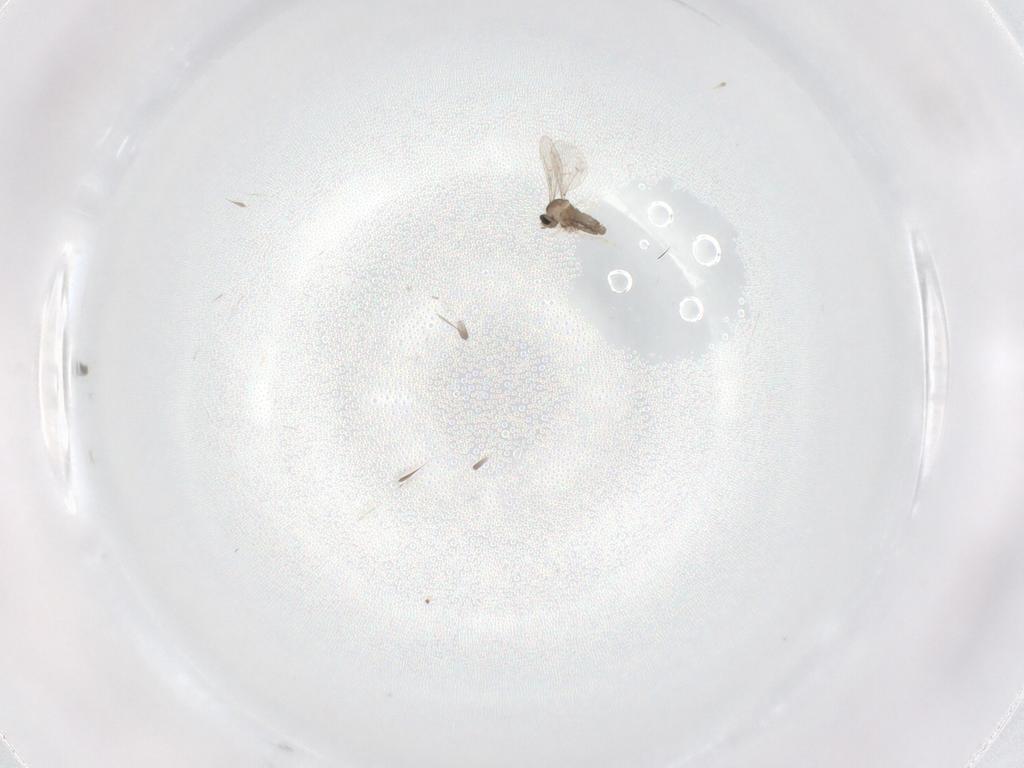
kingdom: Animalia
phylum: Arthropoda
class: Insecta
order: Diptera
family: Cecidomyiidae
